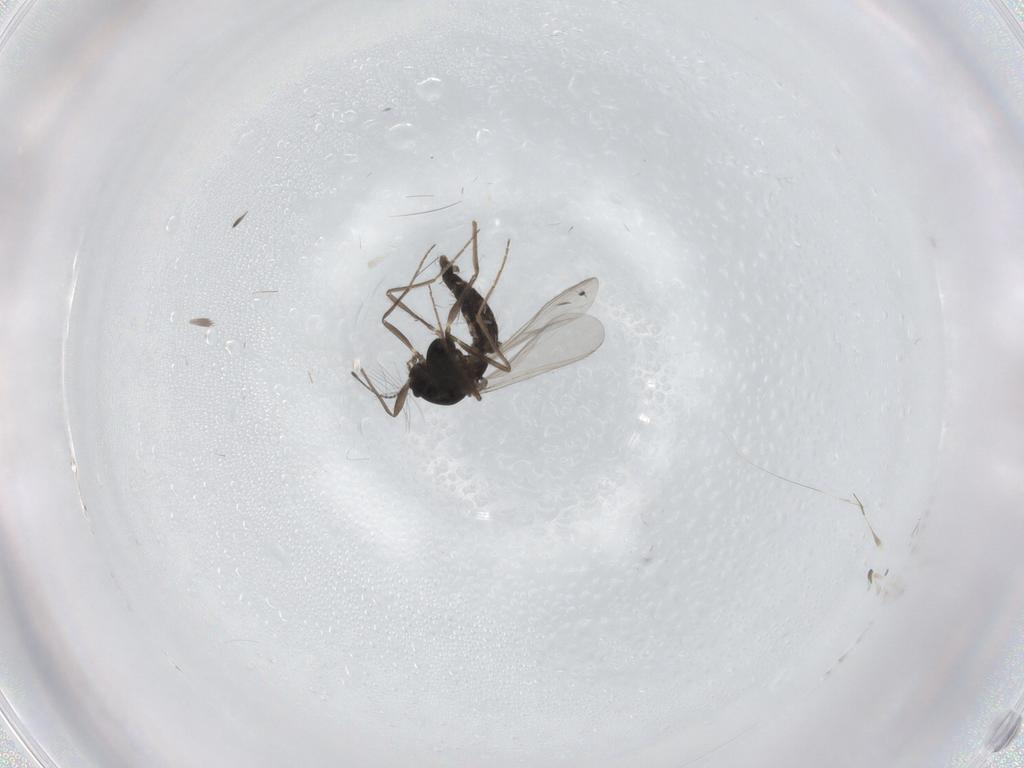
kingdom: Animalia
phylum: Arthropoda
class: Insecta
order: Diptera
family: Chironomidae
